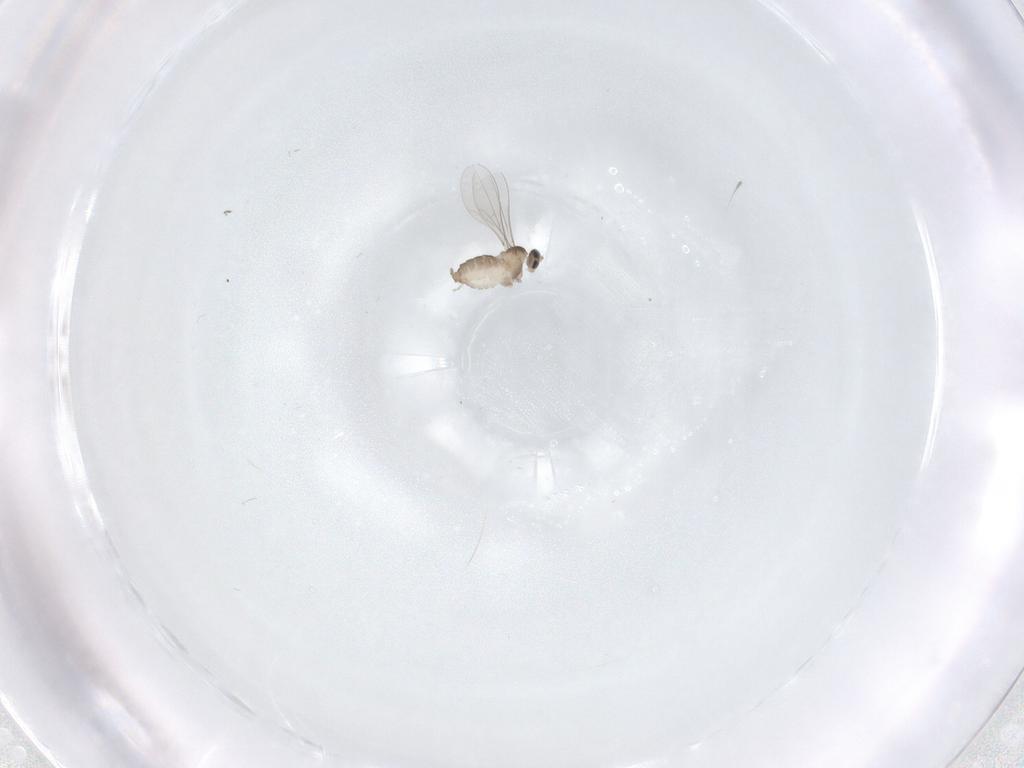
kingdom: Animalia
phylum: Arthropoda
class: Insecta
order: Diptera
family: Cecidomyiidae
